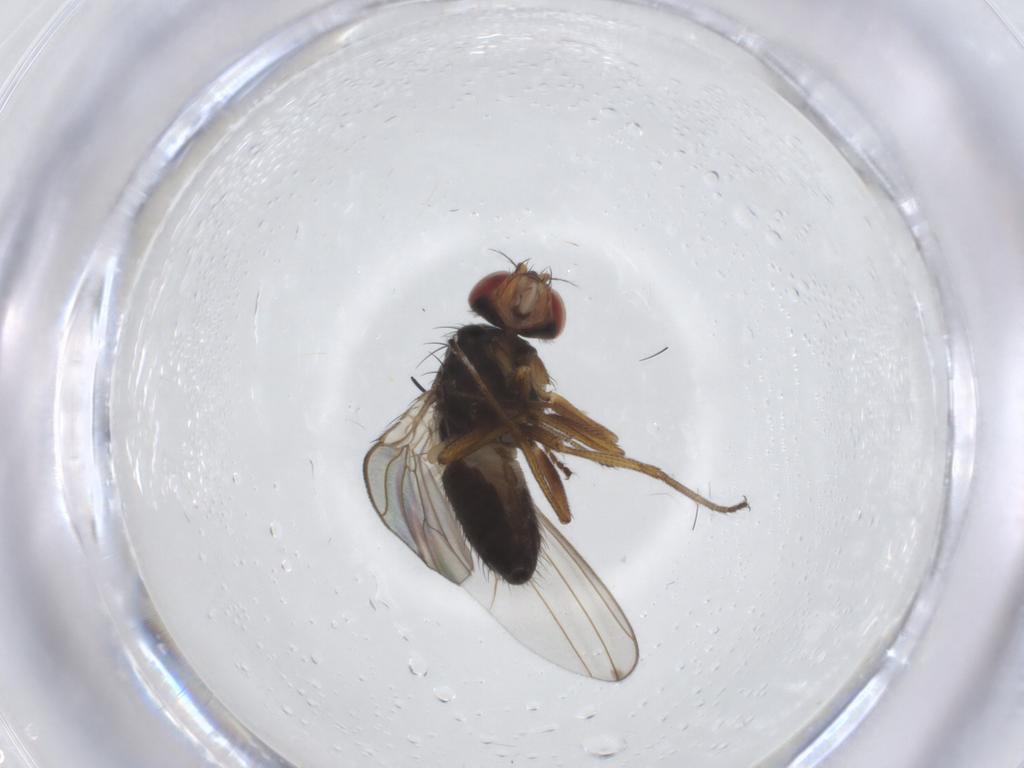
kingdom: Animalia
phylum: Arthropoda
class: Insecta
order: Diptera
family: Drosophilidae
